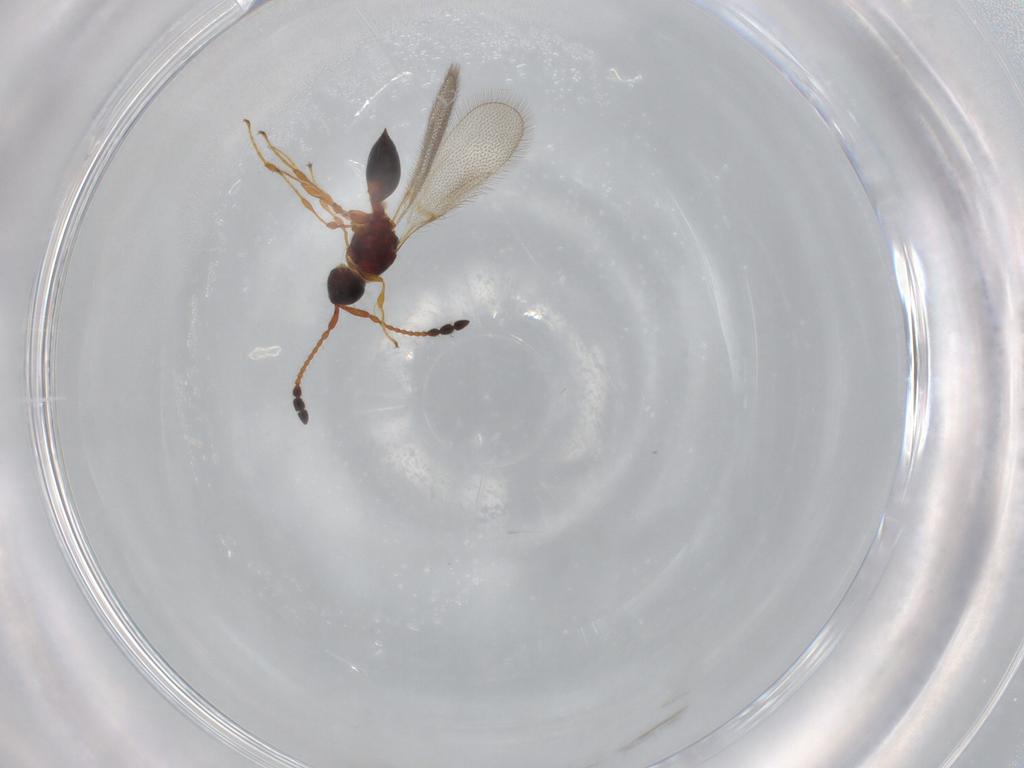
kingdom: Animalia
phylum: Arthropoda
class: Insecta
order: Hymenoptera
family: Diapriidae
